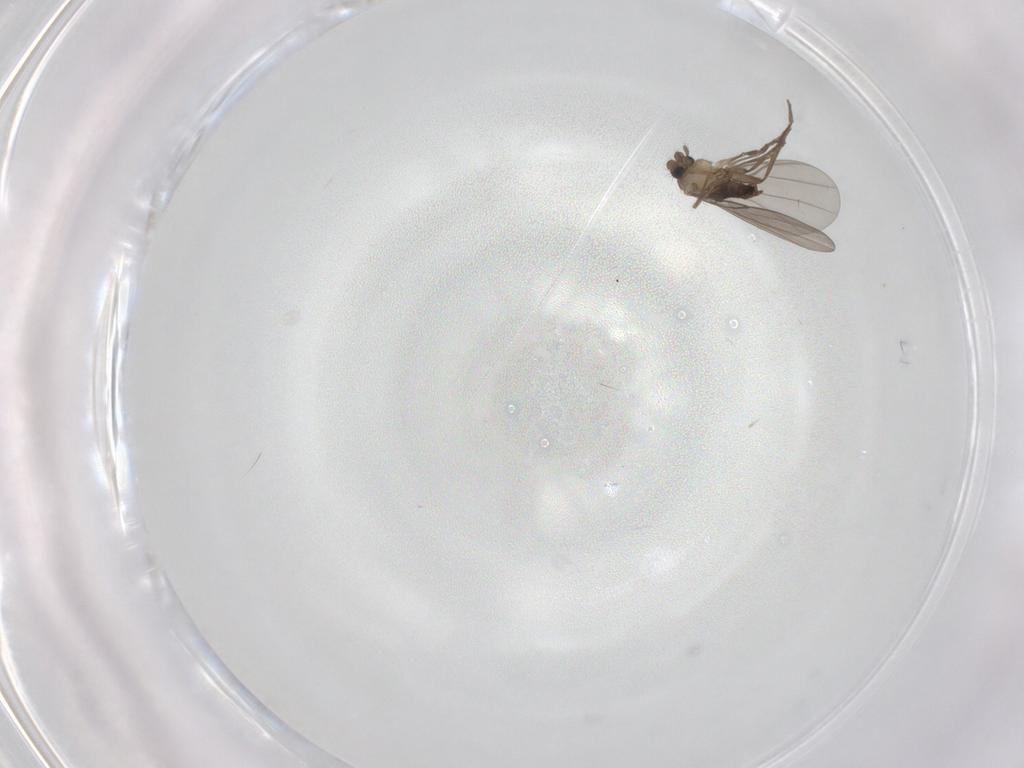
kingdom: Animalia
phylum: Arthropoda
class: Insecta
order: Diptera
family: Phoridae
